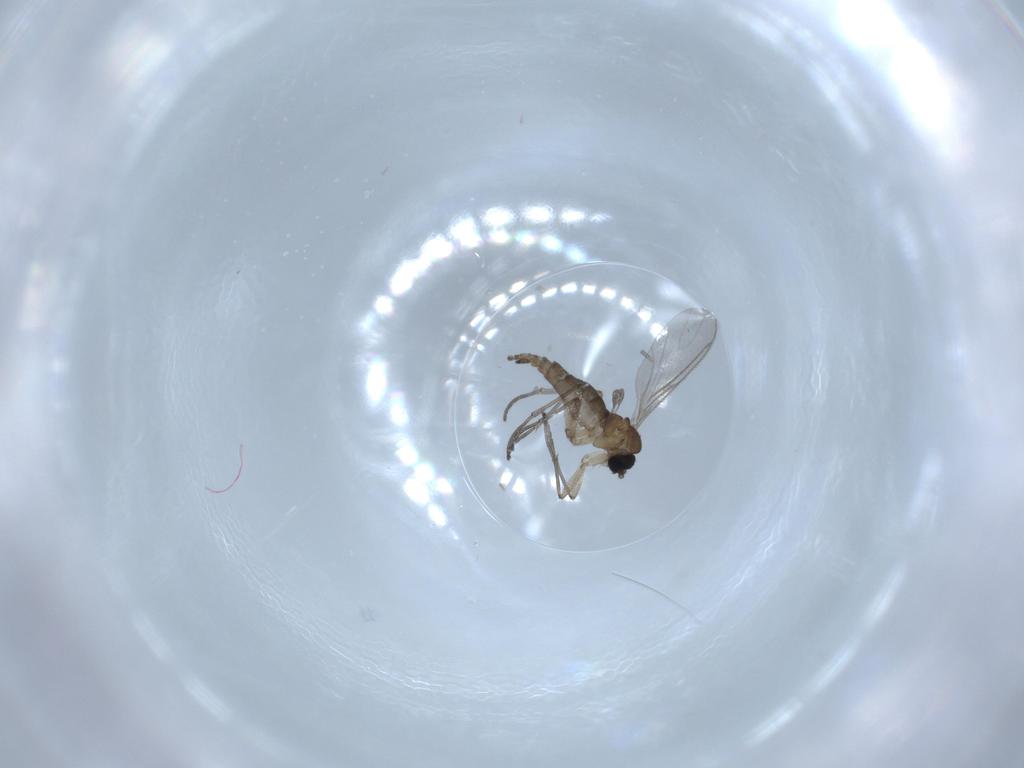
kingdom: Animalia
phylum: Arthropoda
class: Insecta
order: Diptera
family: Sciaridae
